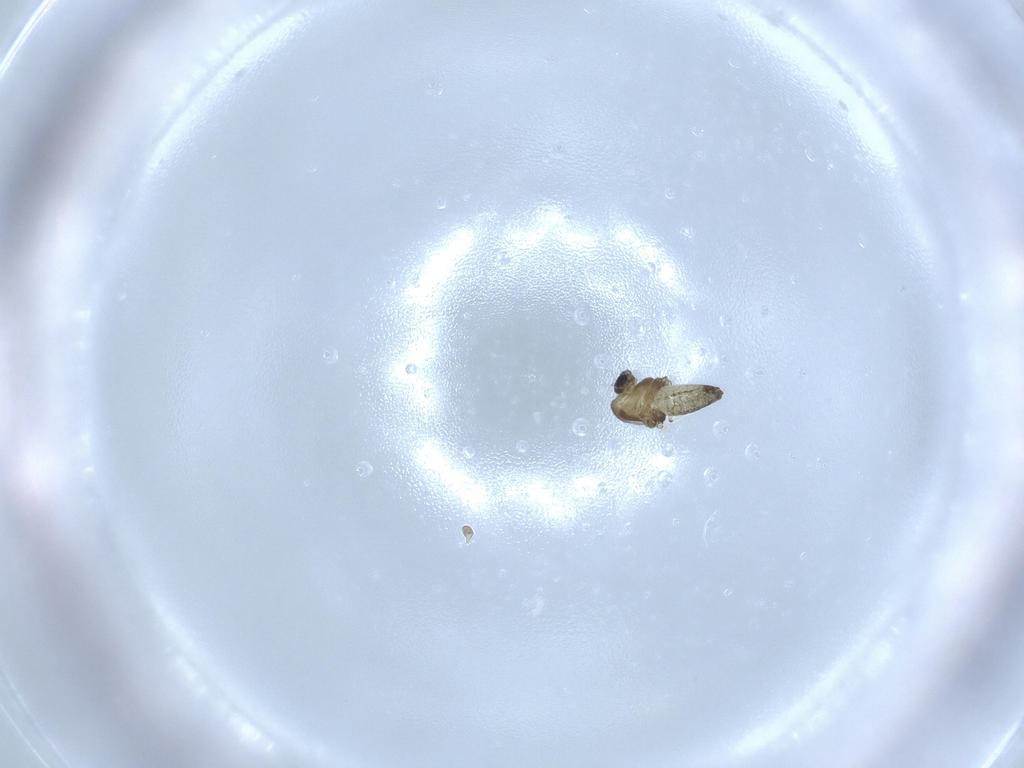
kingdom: Animalia
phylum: Arthropoda
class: Insecta
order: Diptera
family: Chironomidae
